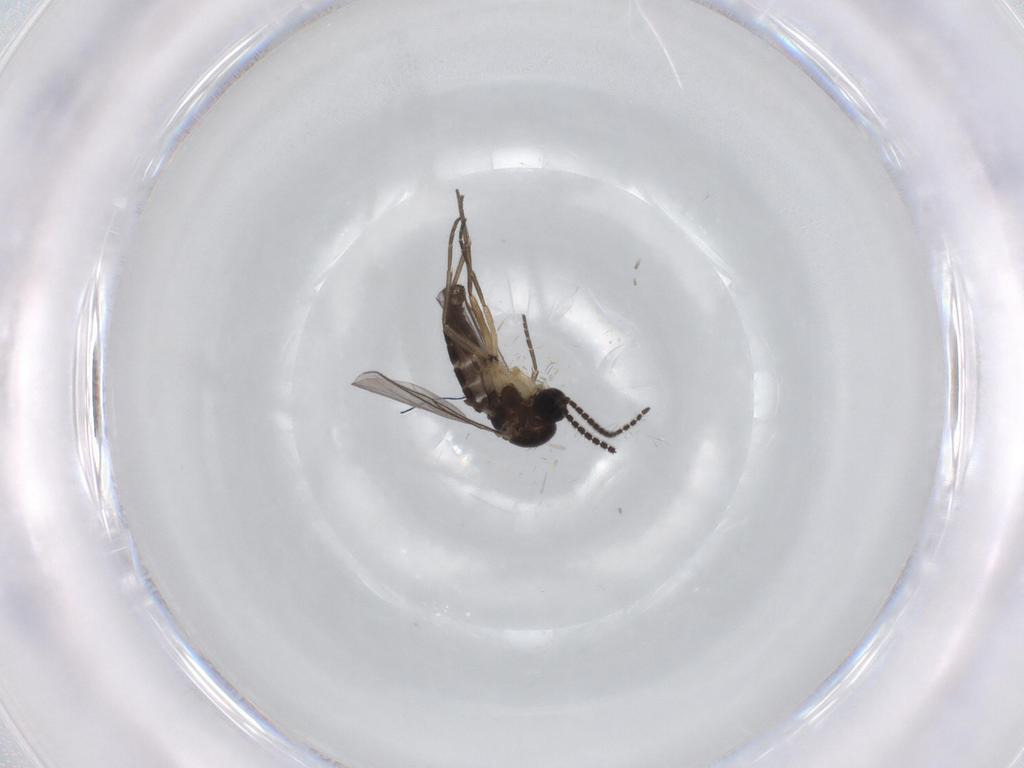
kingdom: Animalia
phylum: Arthropoda
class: Insecta
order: Diptera
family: Sciaridae
